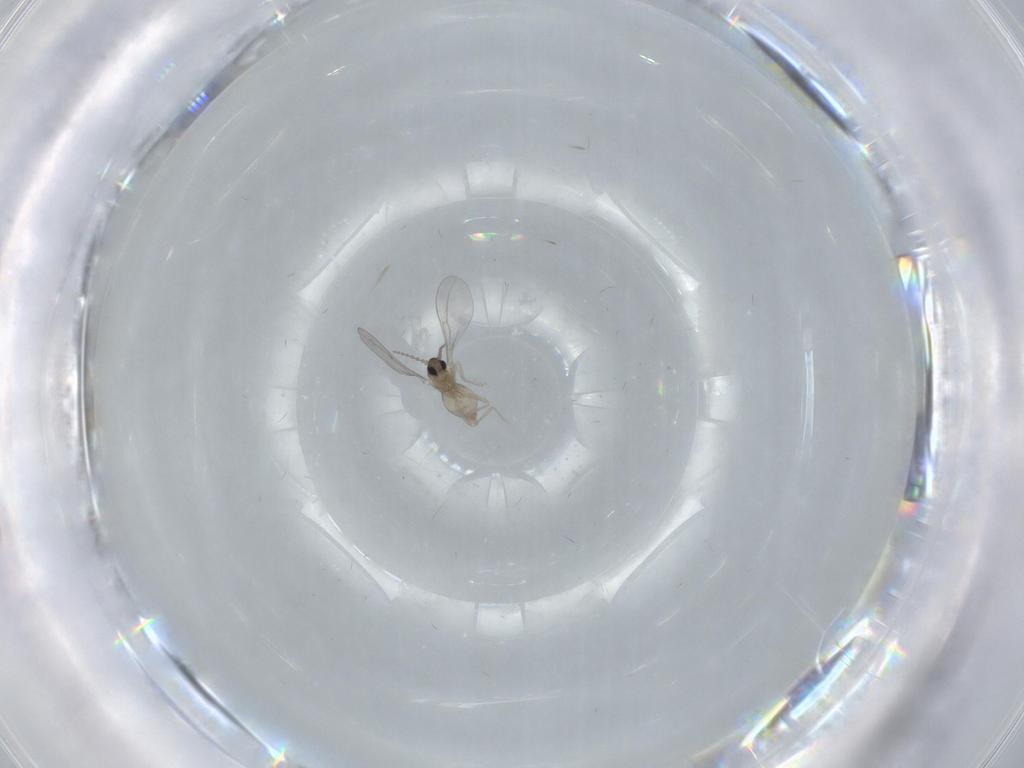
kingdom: Animalia
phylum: Arthropoda
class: Insecta
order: Diptera
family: Cecidomyiidae
